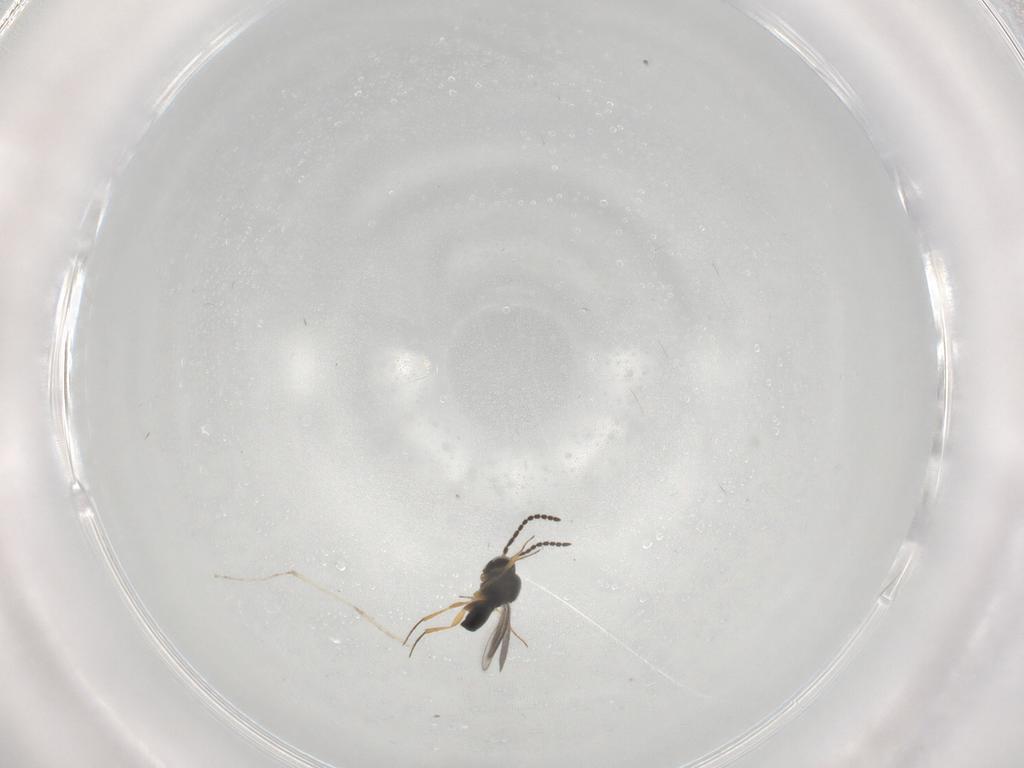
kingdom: Animalia
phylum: Arthropoda
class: Insecta
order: Hymenoptera
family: Scelionidae
